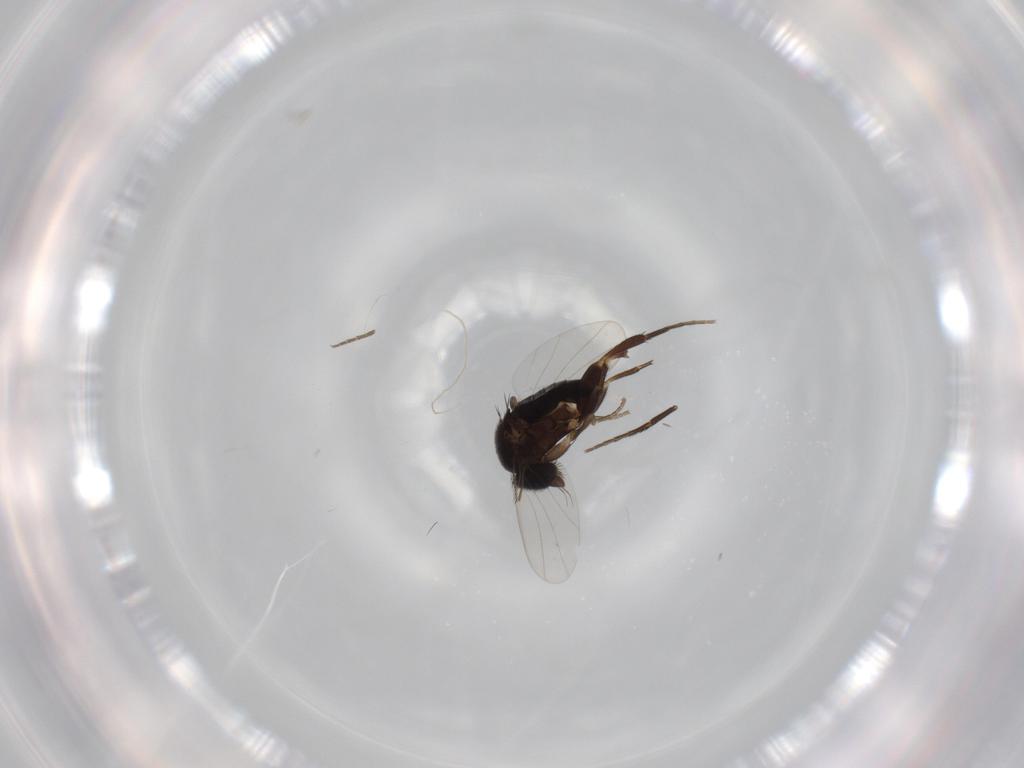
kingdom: Animalia
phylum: Arthropoda
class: Insecta
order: Diptera
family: Phoridae
